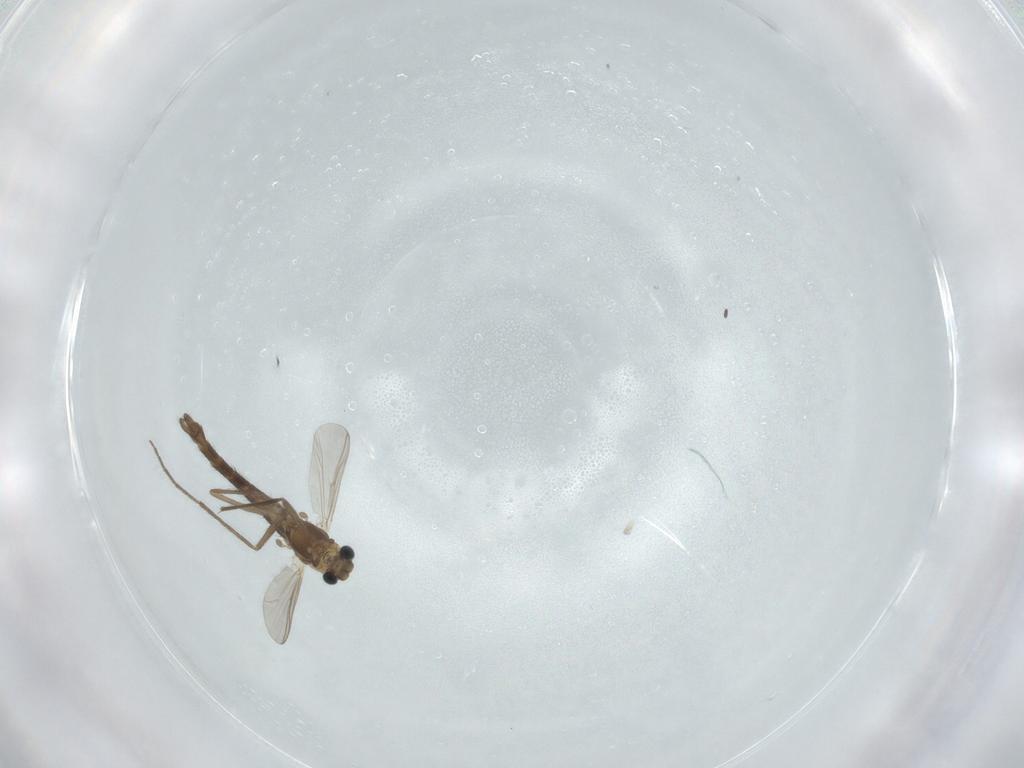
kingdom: Animalia
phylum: Arthropoda
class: Insecta
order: Diptera
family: Chironomidae
